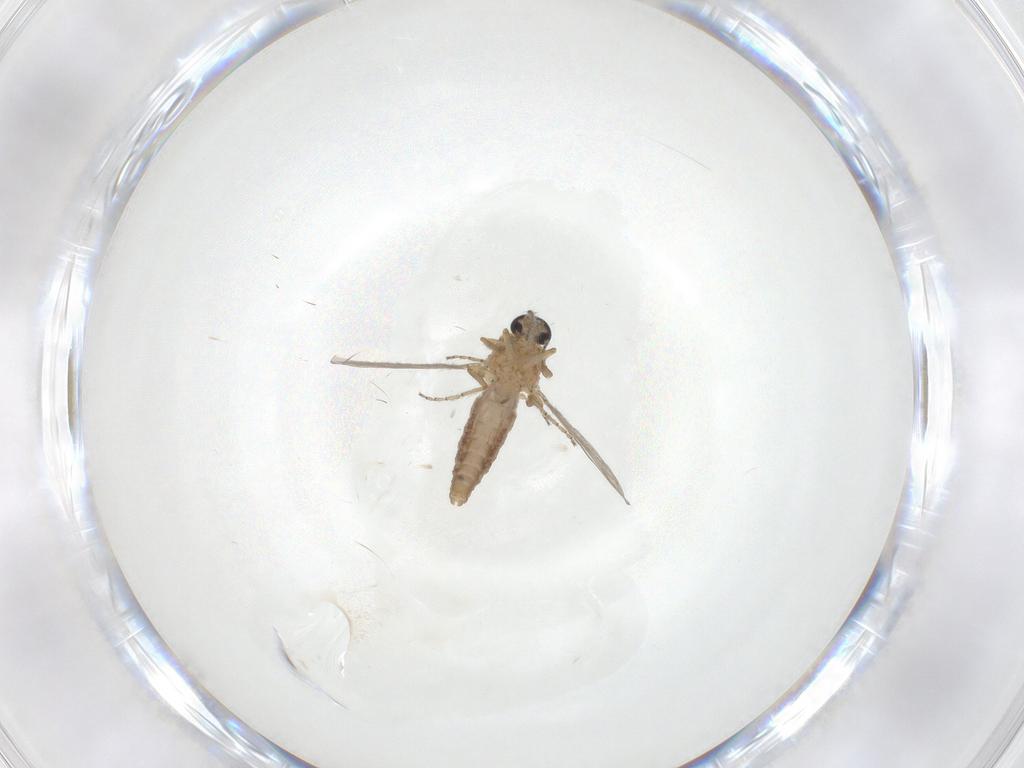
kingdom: Animalia
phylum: Arthropoda
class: Insecta
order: Diptera
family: Ceratopogonidae
